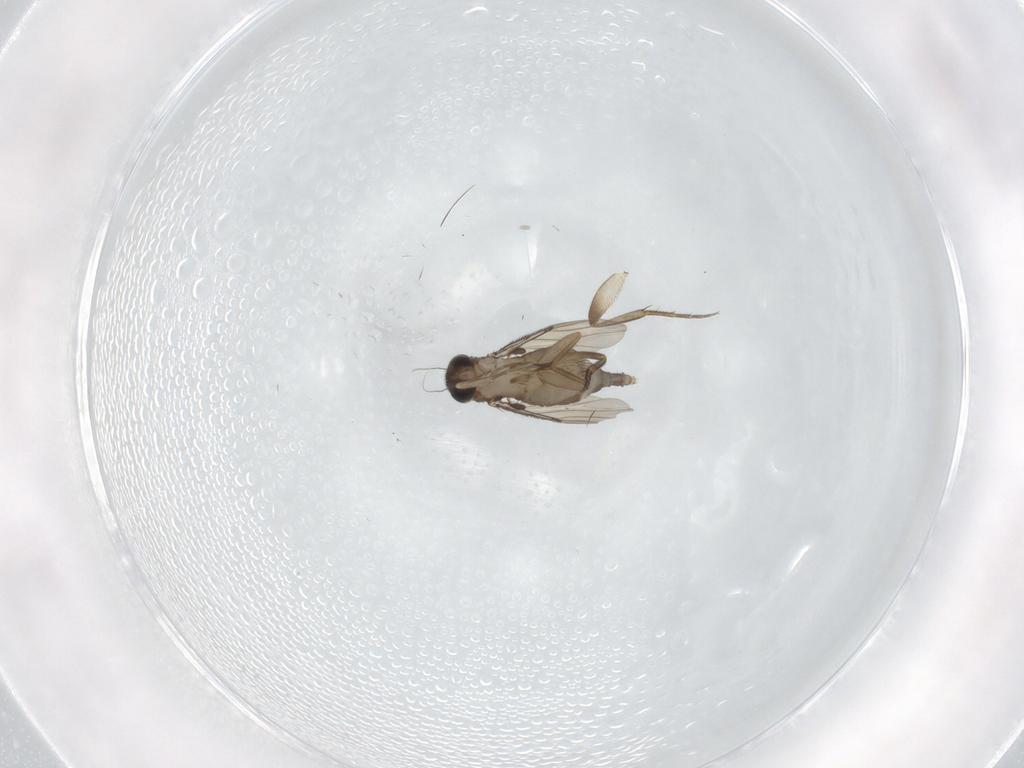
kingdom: Animalia
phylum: Arthropoda
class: Insecta
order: Diptera
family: Phoridae
